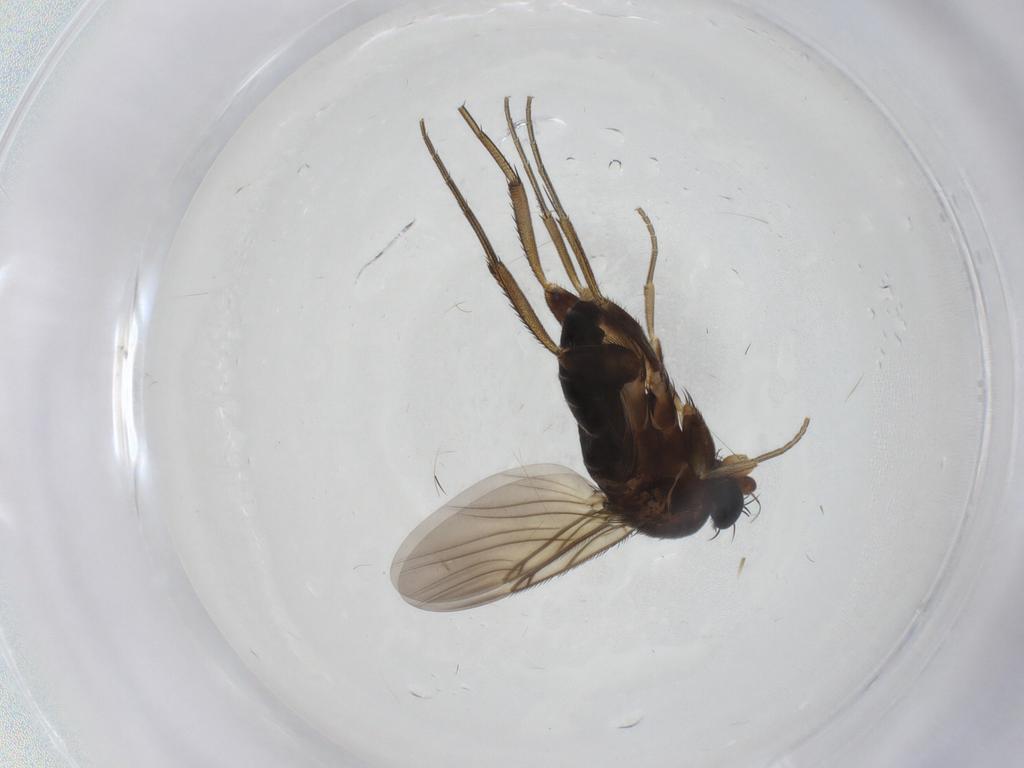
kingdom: Animalia
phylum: Arthropoda
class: Insecta
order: Diptera
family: Phoridae
